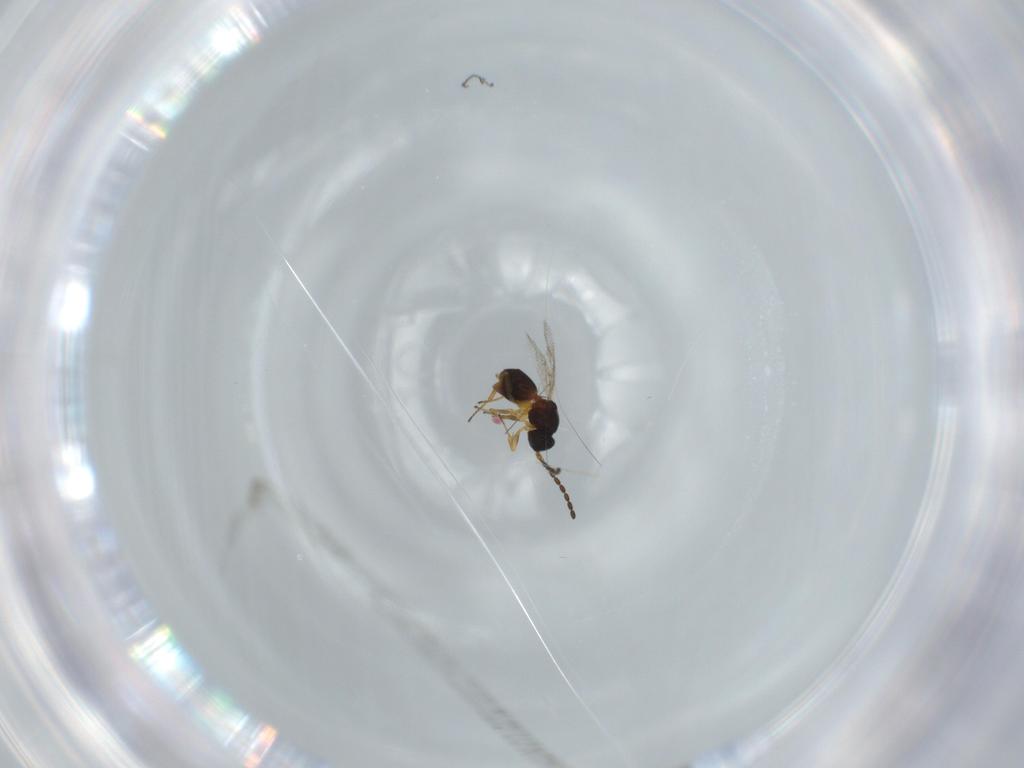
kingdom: Animalia
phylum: Arthropoda
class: Insecta
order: Hymenoptera
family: Figitidae
